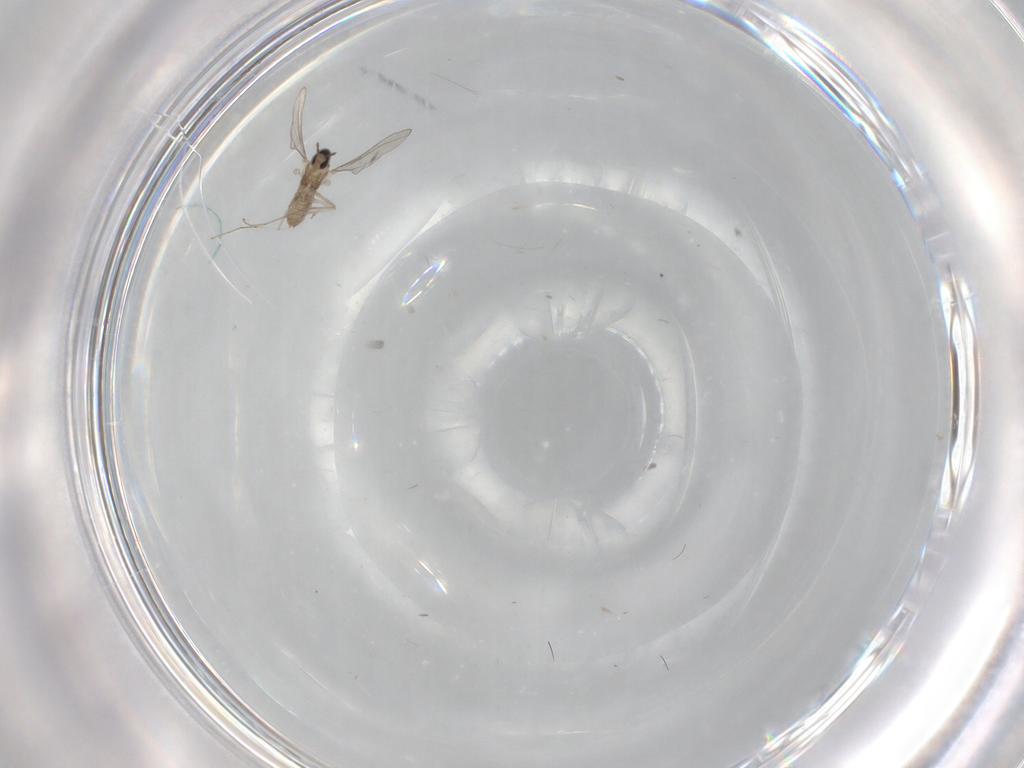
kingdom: Animalia
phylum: Arthropoda
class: Insecta
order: Diptera
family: Cecidomyiidae
